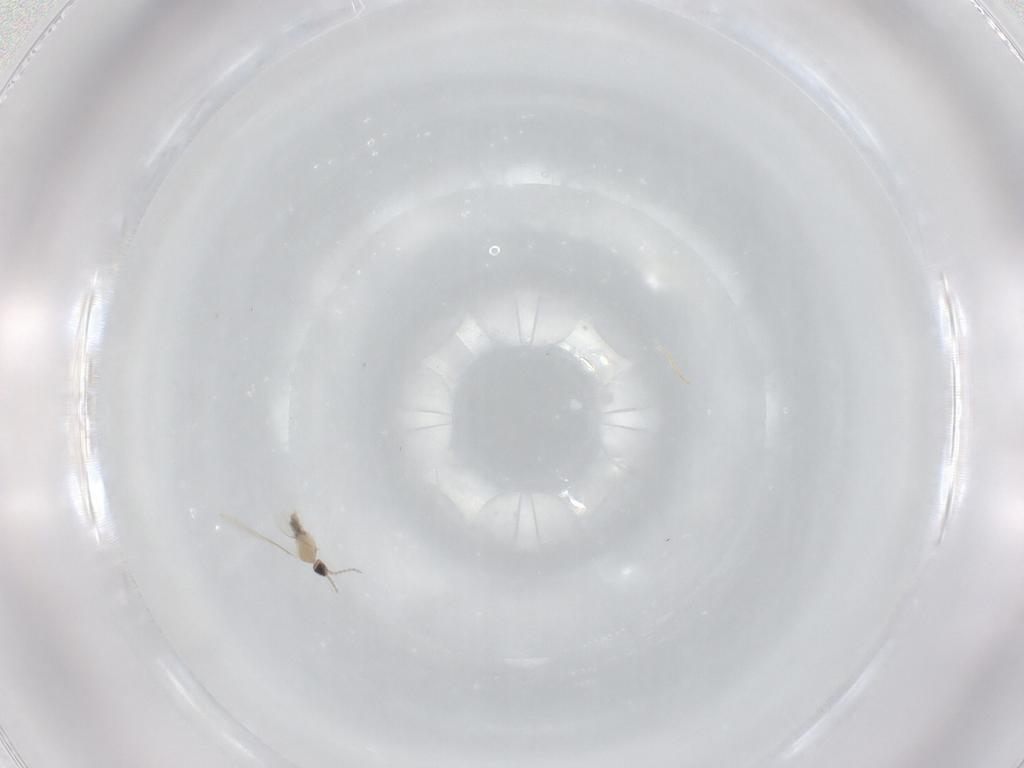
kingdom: Animalia
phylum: Arthropoda
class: Insecta
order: Diptera
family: Cecidomyiidae
